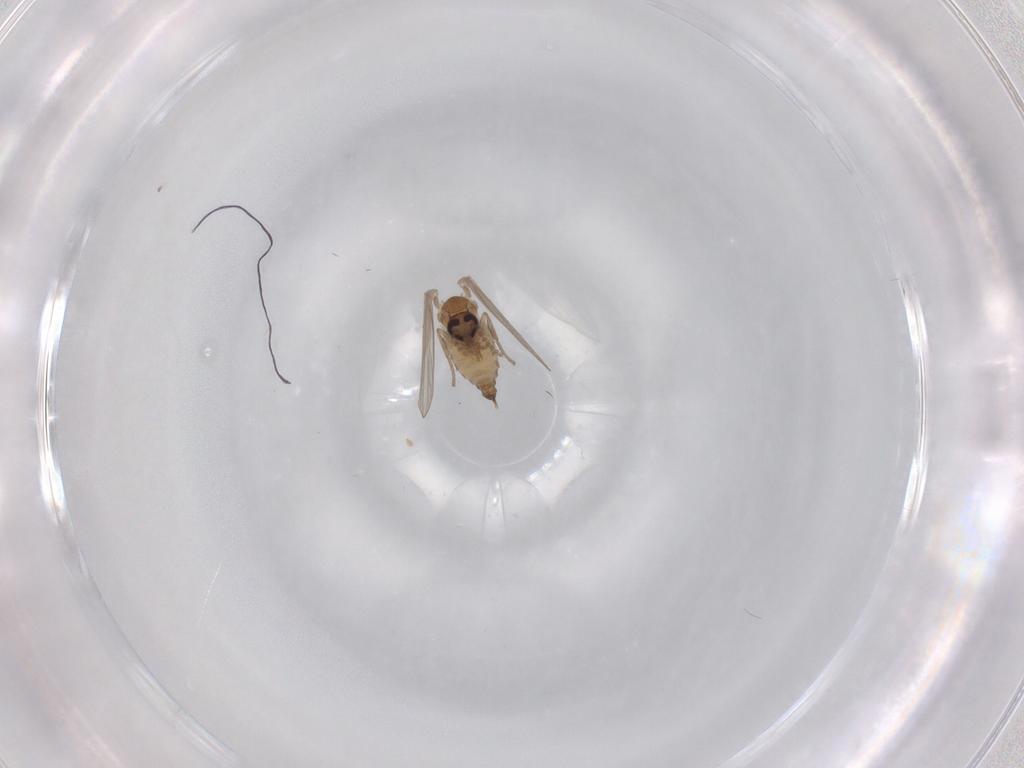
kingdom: Animalia
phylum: Arthropoda
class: Insecta
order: Diptera
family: Psychodidae
